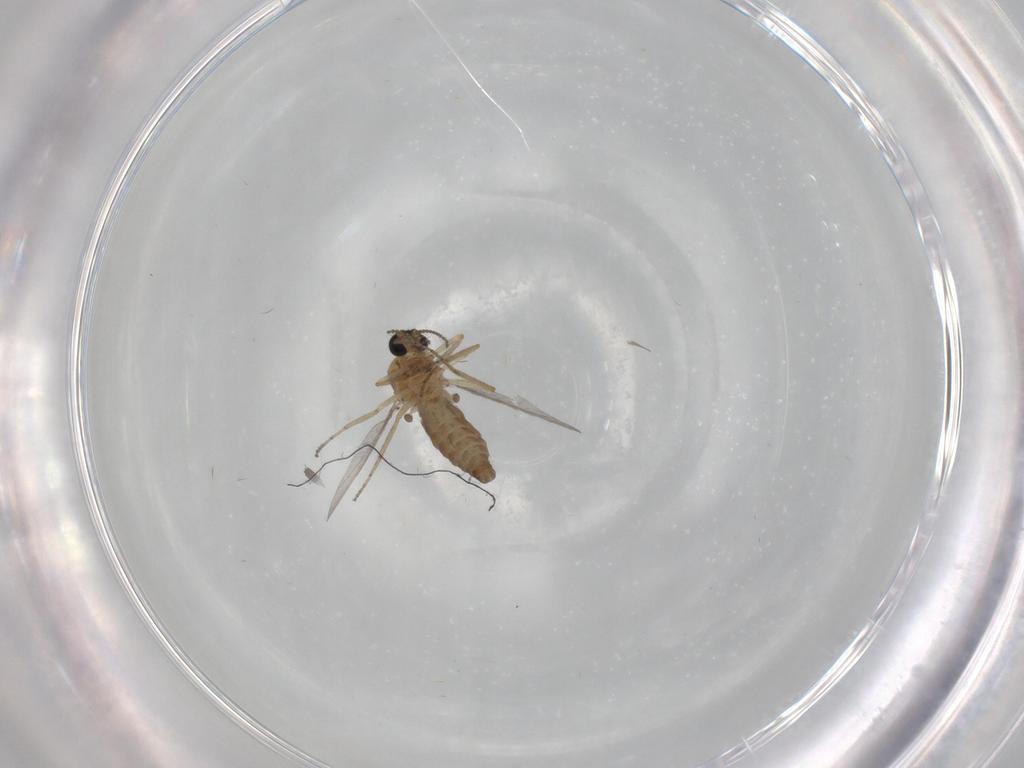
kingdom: Animalia
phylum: Arthropoda
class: Insecta
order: Diptera
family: Ceratopogonidae
